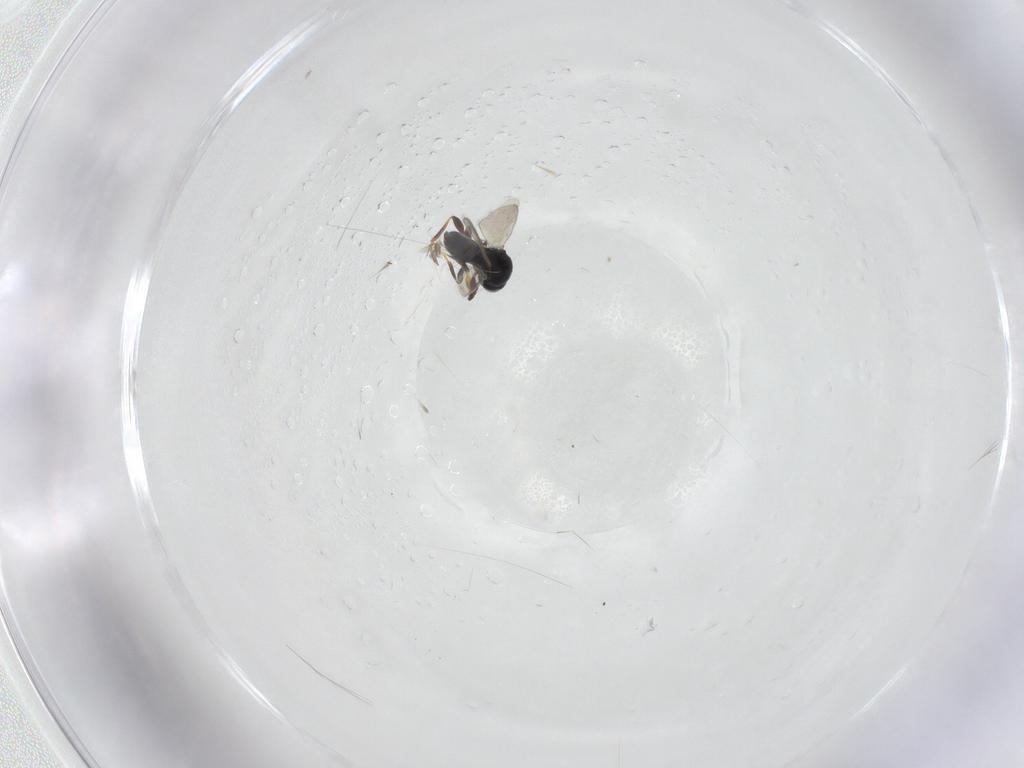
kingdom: Animalia
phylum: Arthropoda
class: Insecta
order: Hymenoptera
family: Platygastridae
